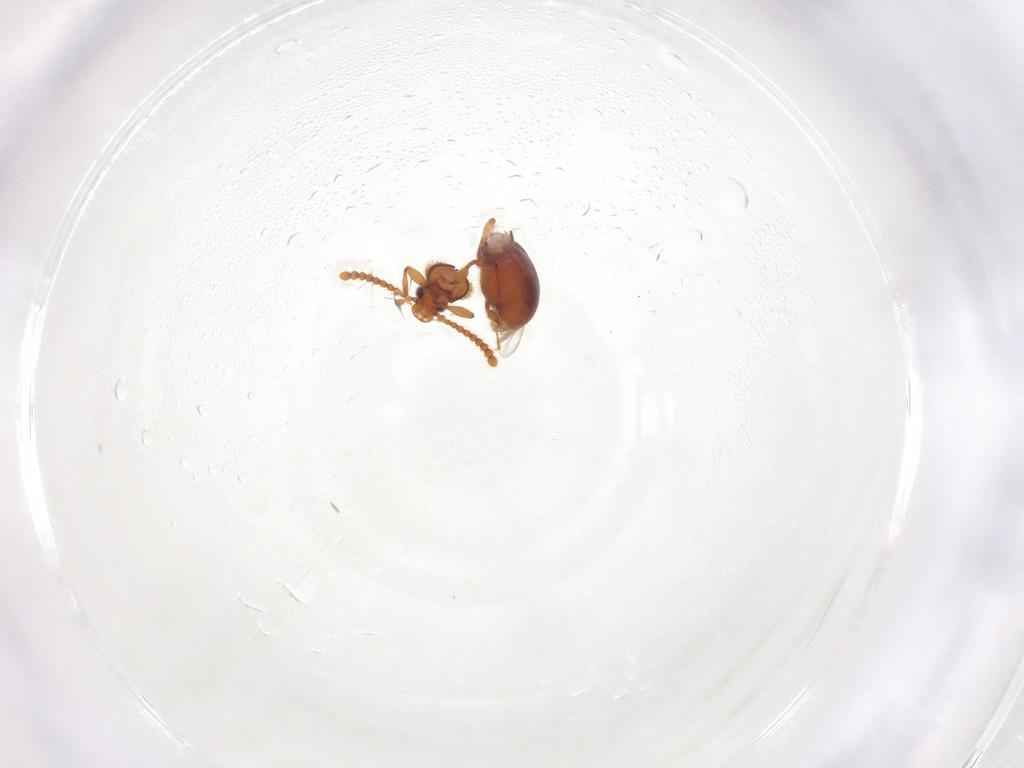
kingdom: Animalia
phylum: Arthropoda
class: Insecta
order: Coleoptera
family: Staphylinidae
